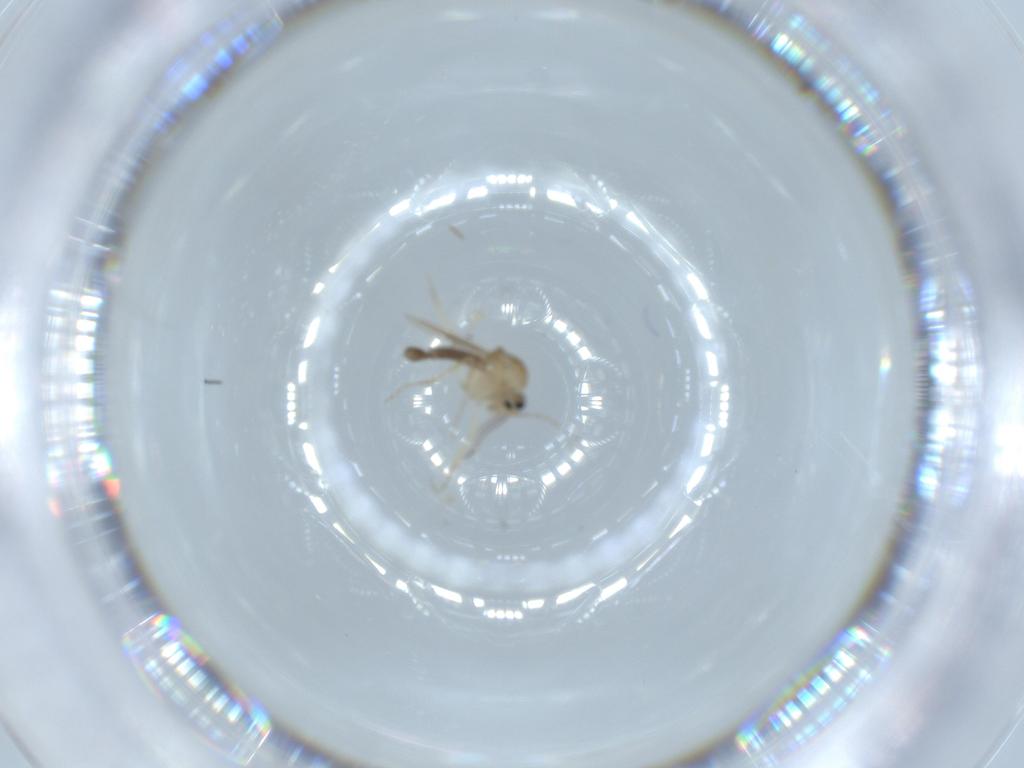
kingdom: Animalia
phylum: Arthropoda
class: Insecta
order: Diptera
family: Ceratopogonidae
